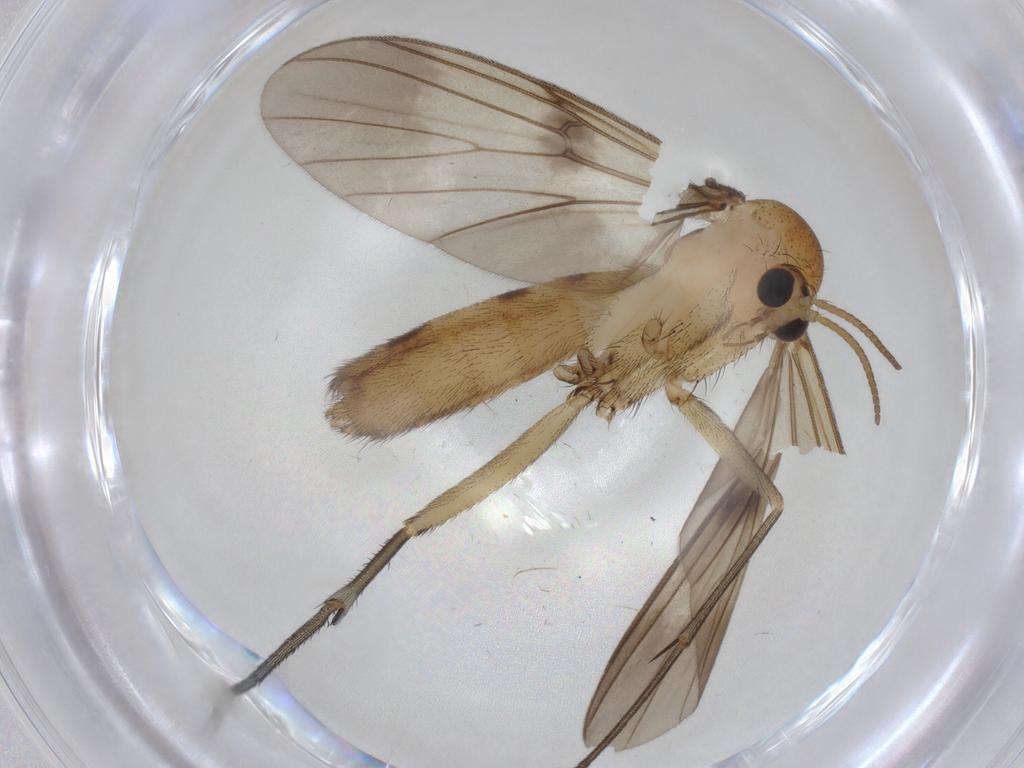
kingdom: Animalia
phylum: Arthropoda
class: Insecta
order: Diptera
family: Mycetophilidae
